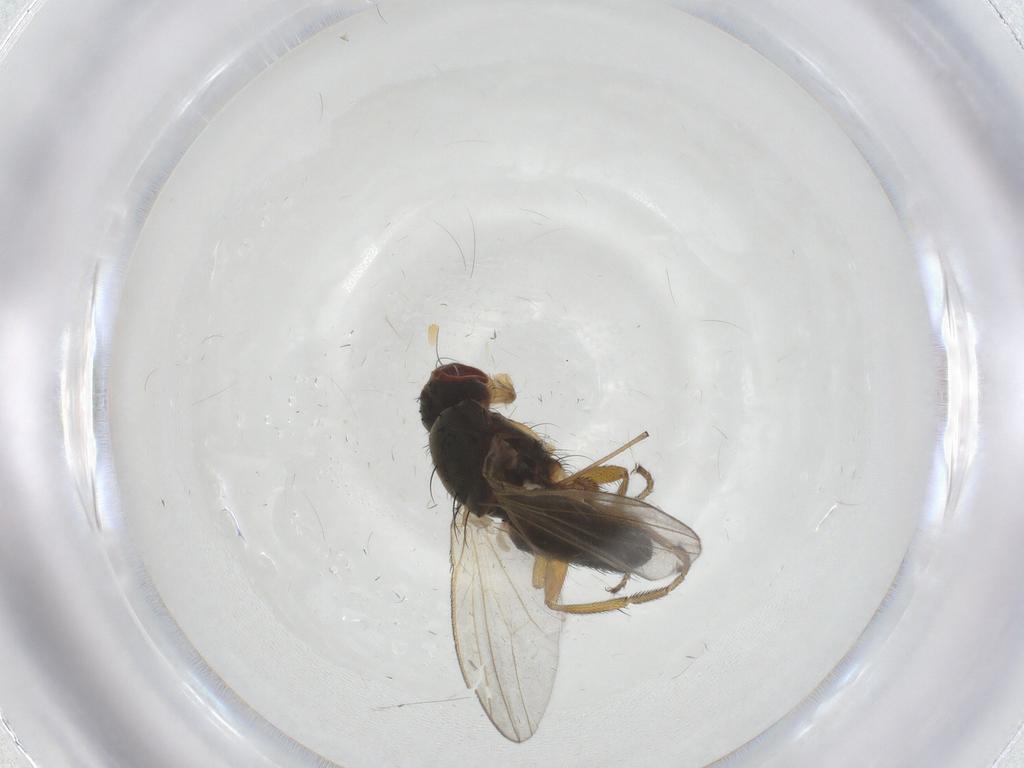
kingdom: Animalia
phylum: Arthropoda
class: Insecta
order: Diptera
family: Heleomyzidae
